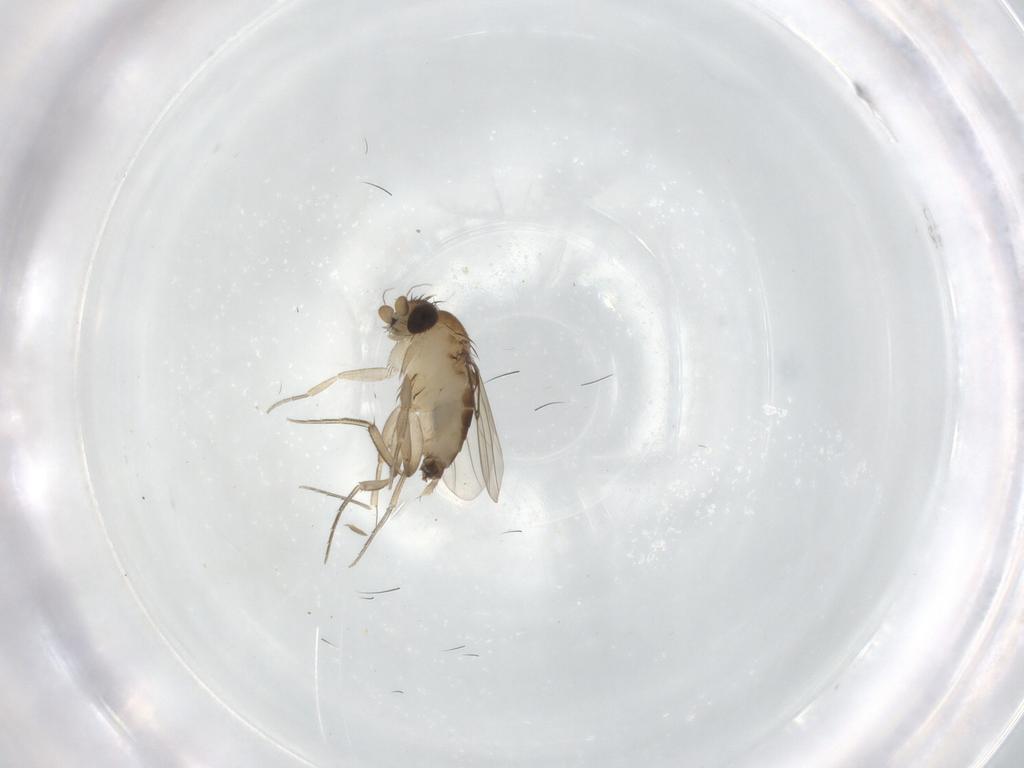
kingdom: Animalia
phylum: Arthropoda
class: Insecta
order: Diptera
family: Phoridae
